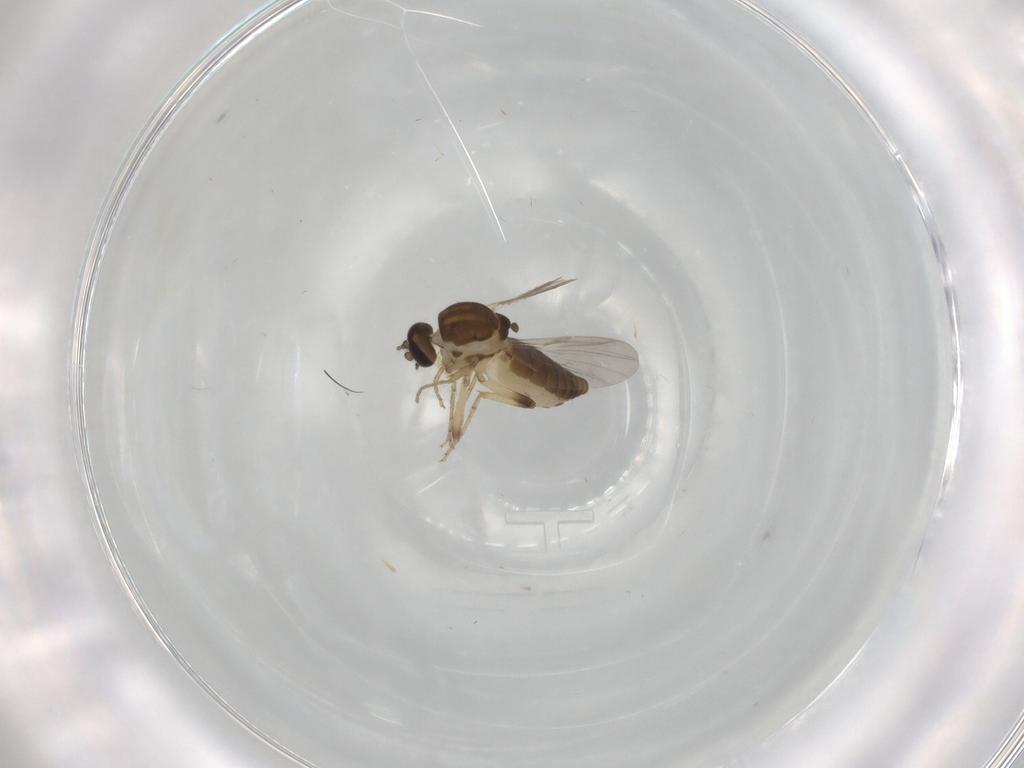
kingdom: Animalia
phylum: Arthropoda
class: Insecta
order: Diptera
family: Ceratopogonidae
